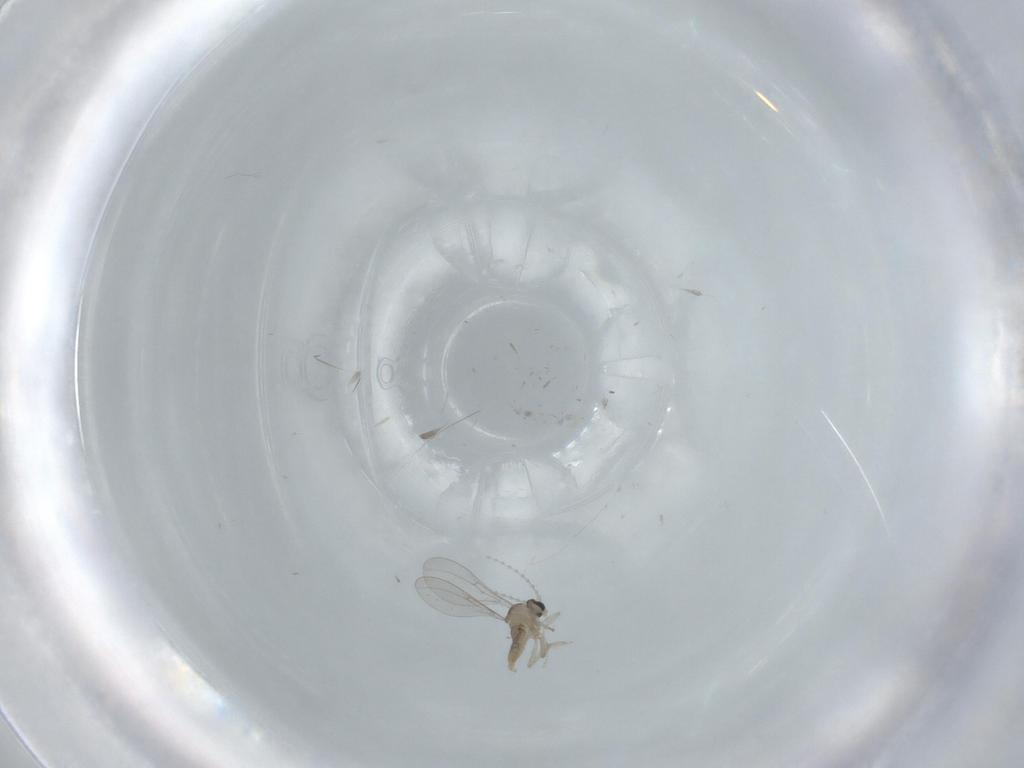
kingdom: Animalia
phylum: Arthropoda
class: Insecta
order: Diptera
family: Cecidomyiidae
